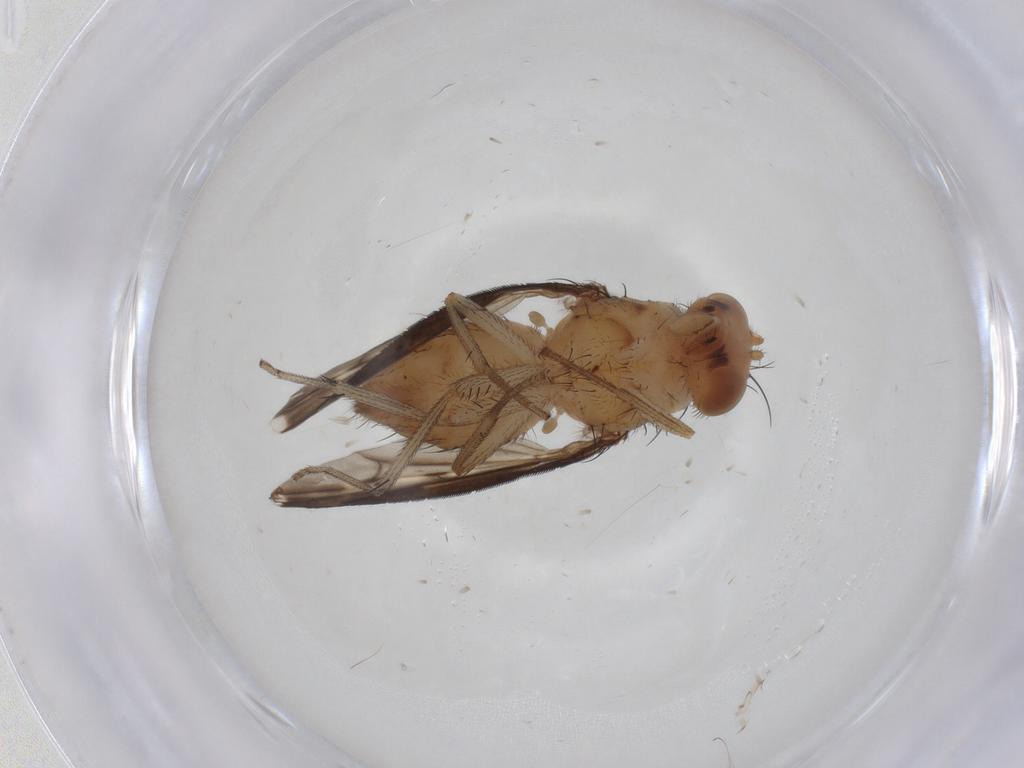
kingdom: Animalia
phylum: Arthropoda
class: Insecta
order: Diptera
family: Lauxaniidae
